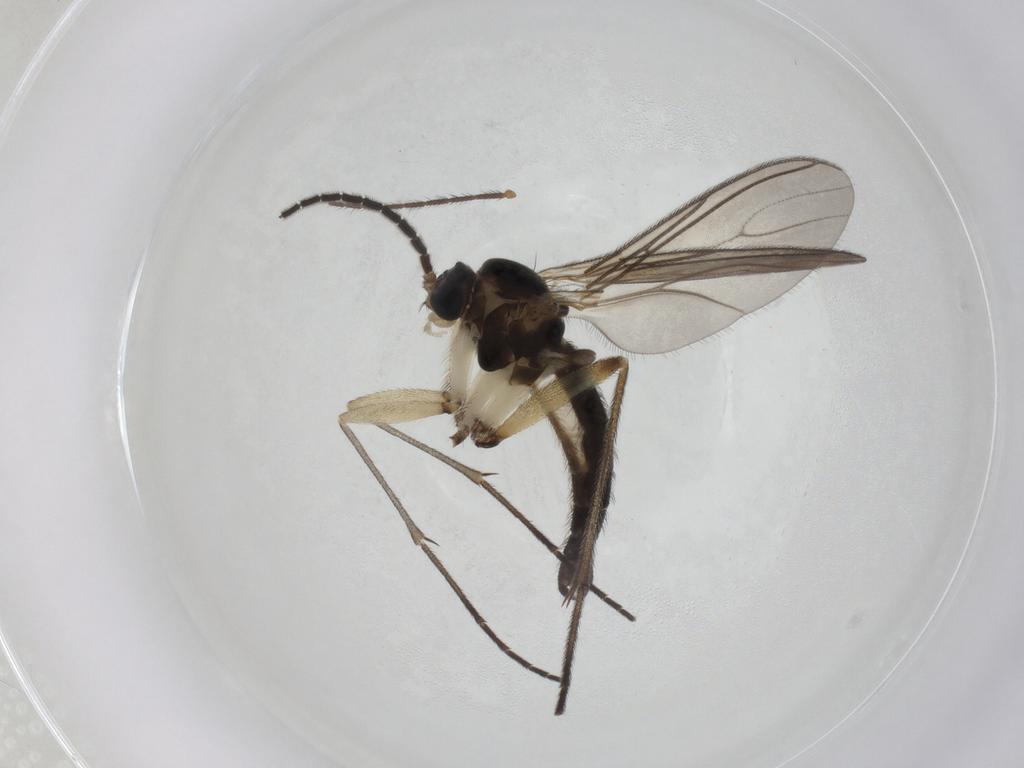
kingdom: Animalia
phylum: Arthropoda
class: Insecta
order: Diptera
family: Sciaridae
